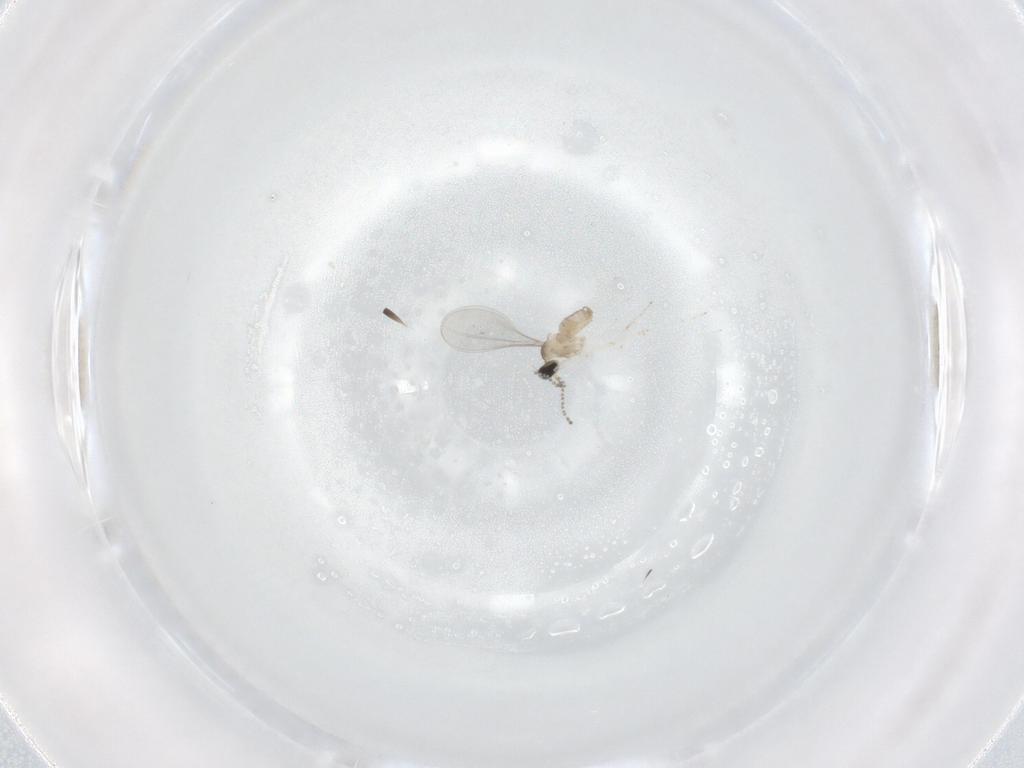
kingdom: Animalia
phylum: Arthropoda
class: Insecta
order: Diptera
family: Cecidomyiidae
